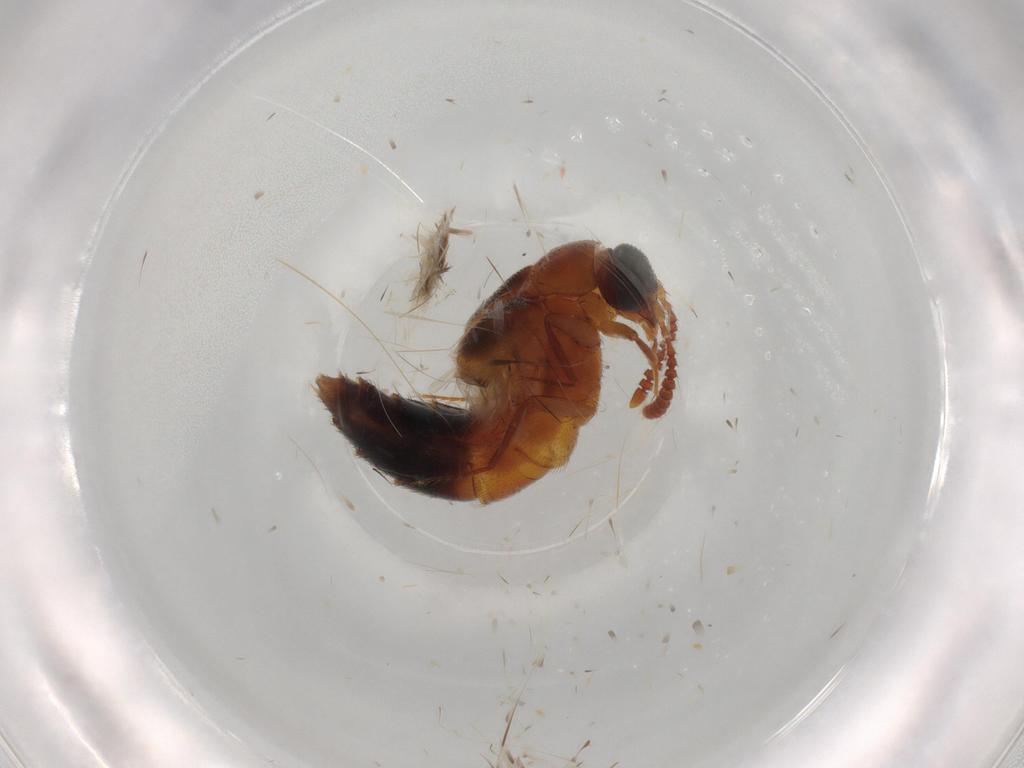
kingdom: Animalia
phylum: Arthropoda
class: Insecta
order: Coleoptera
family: Staphylinidae
